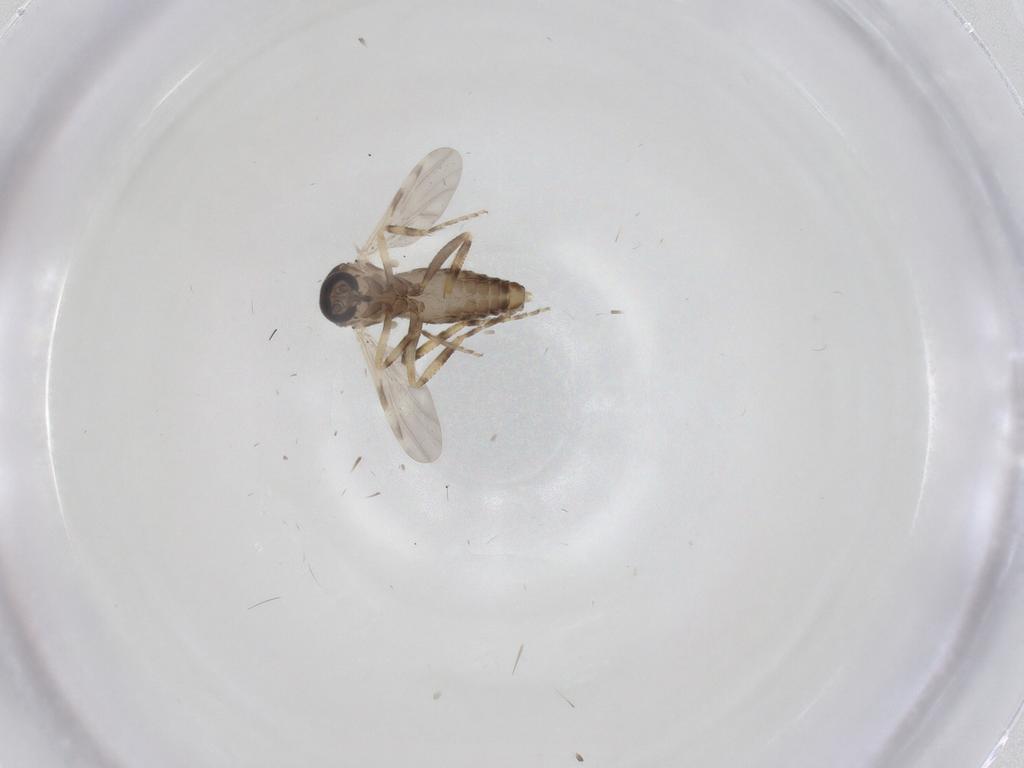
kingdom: Animalia
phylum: Arthropoda
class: Insecta
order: Diptera
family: Ceratopogonidae
